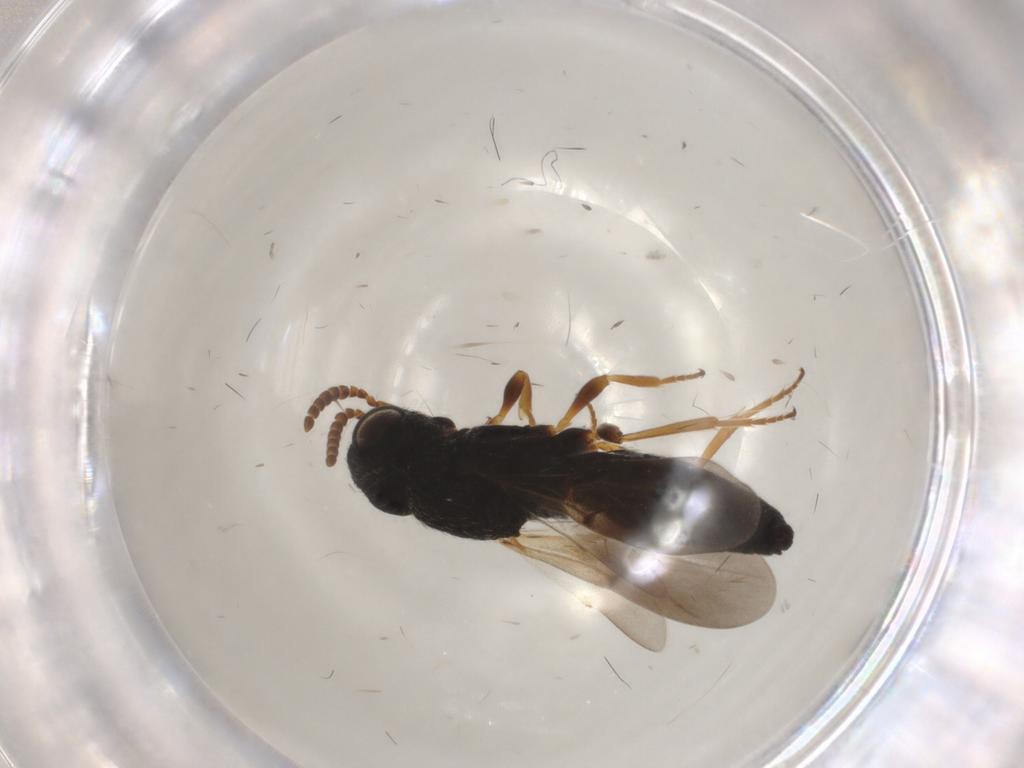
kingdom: Animalia
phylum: Arthropoda
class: Insecta
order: Hymenoptera
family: Scelionidae
